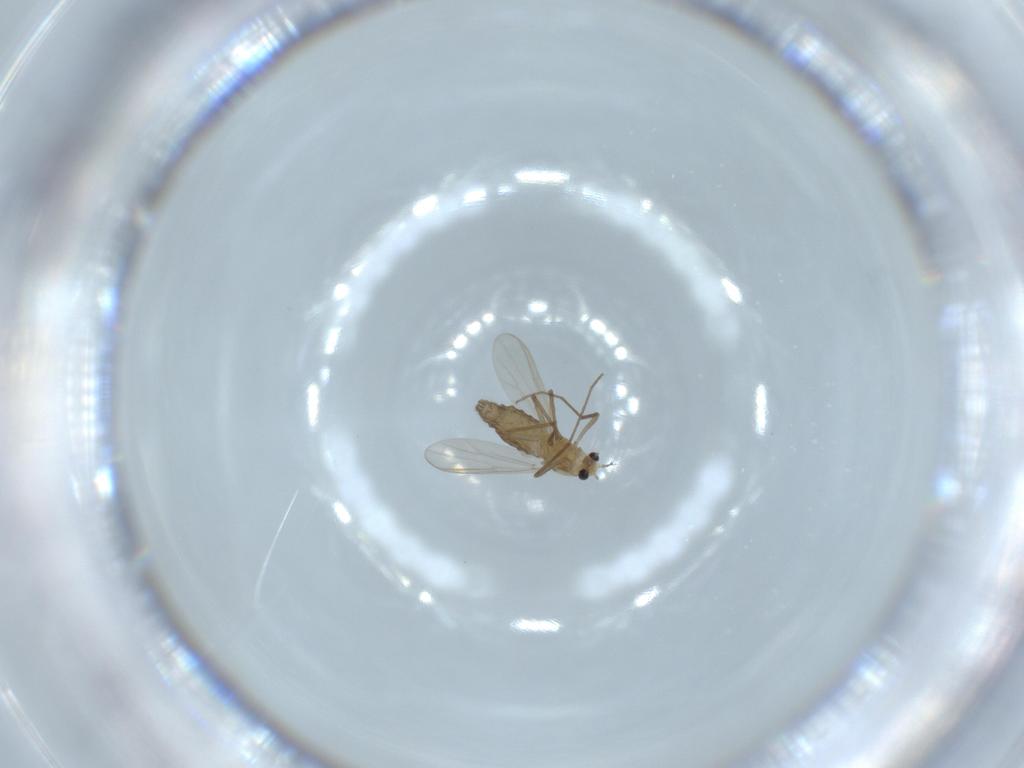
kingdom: Animalia
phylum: Arthropoda
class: Insecta
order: Diptera
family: Chironomidae
